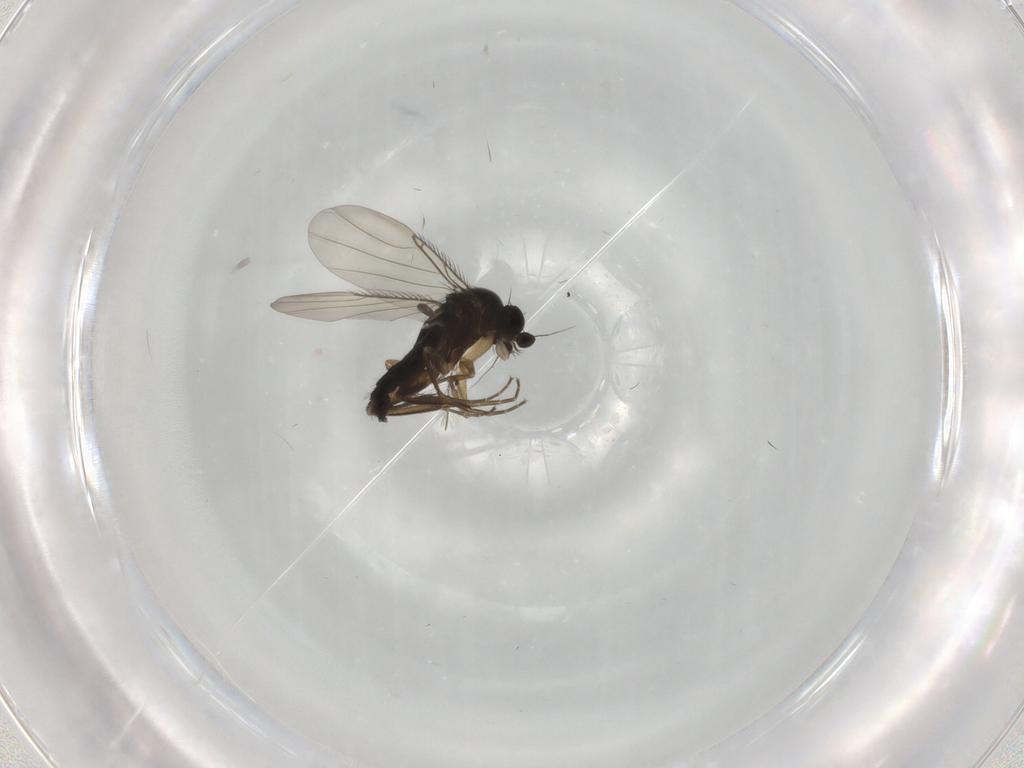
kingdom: Animalia
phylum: Arthropoda
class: Insecta
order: Diptera
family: Phoridae
